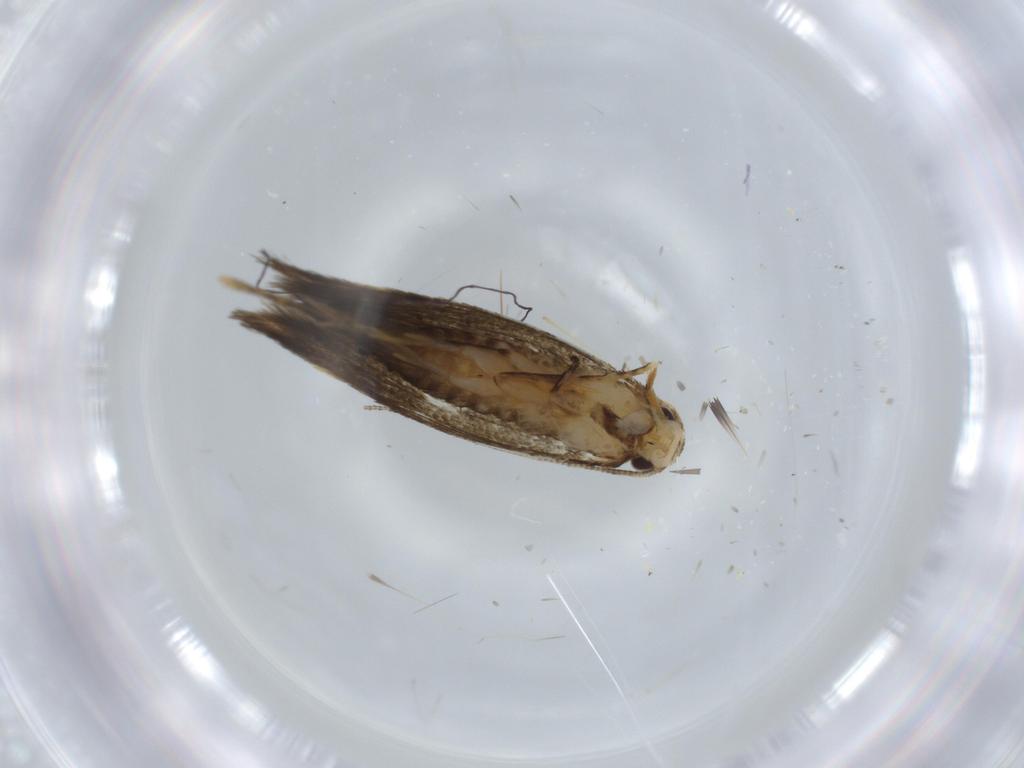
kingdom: Animalia
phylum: Arthropoda
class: Insecta
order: Lepidoptera
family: Tineidae
